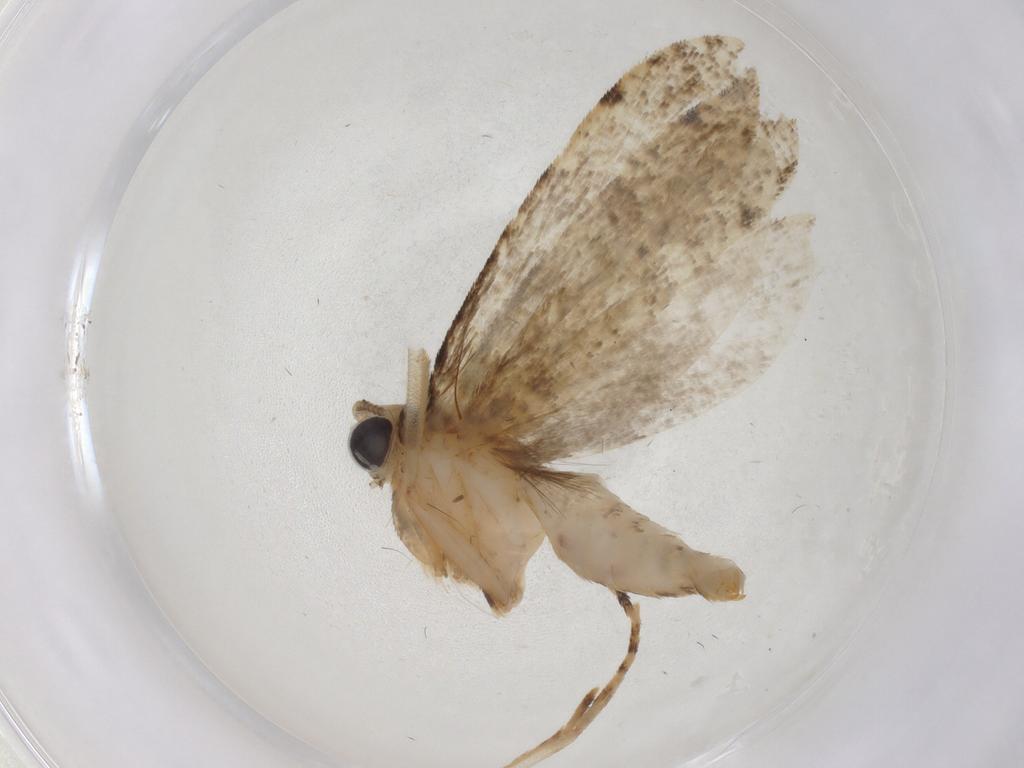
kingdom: Animalia
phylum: Arthropoda
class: Insecta
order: Lepidoptera
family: Tineidae
